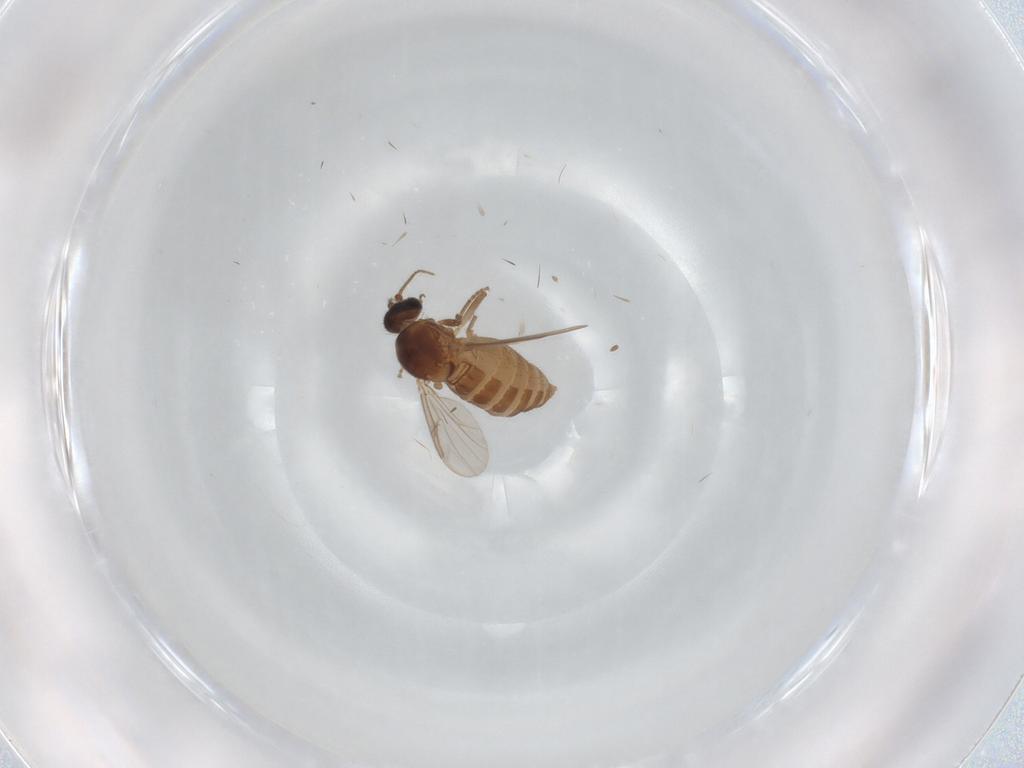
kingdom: Animalia
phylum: Arthropoda
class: Insecta
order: Diptera
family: Ceratopogonidae
